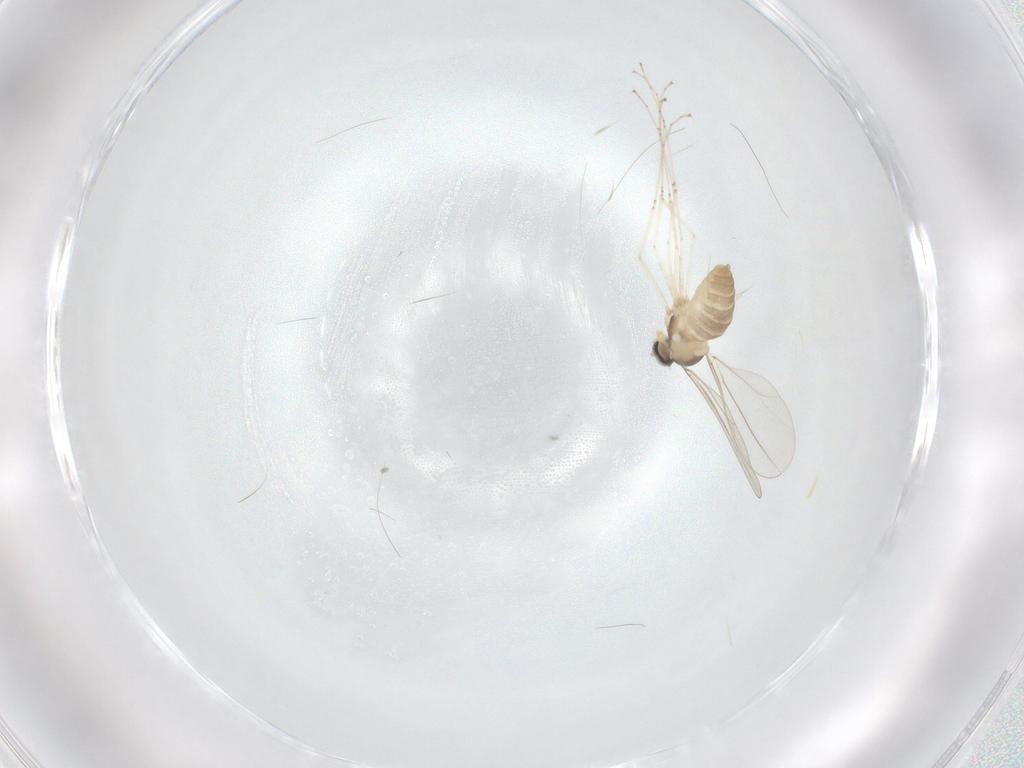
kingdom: Animalia
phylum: Arthropoda
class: Insecta
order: Diptera
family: Cecidomyiidae
